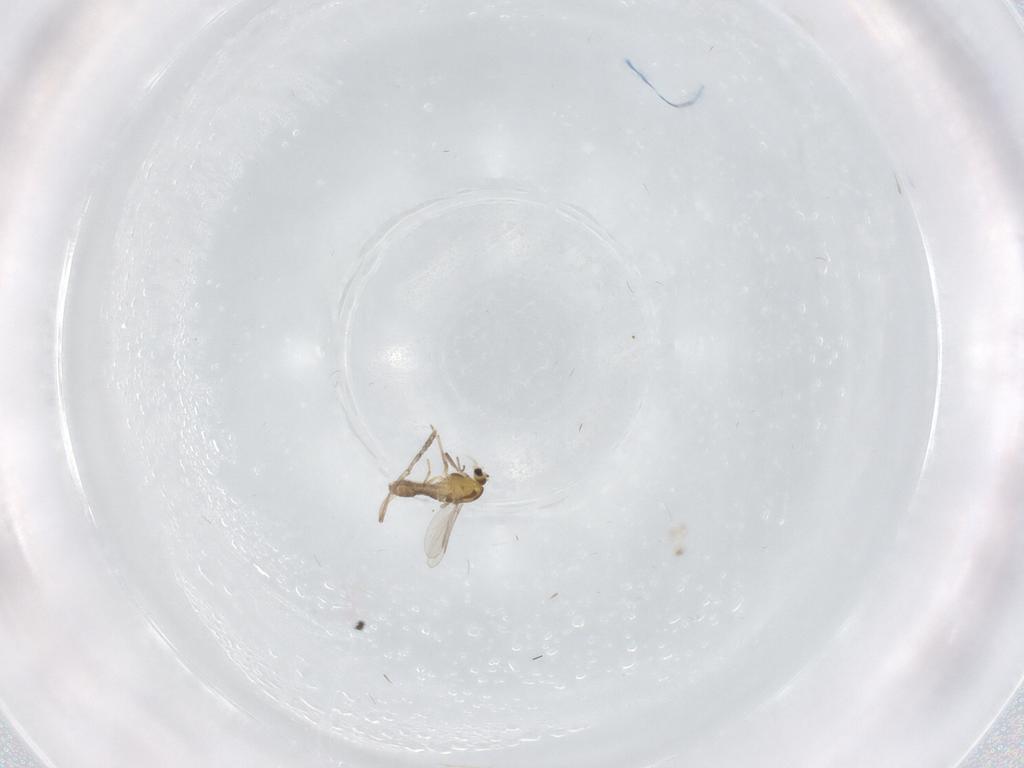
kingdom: Animalia
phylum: Arthropoda
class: Insecta
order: Diptera
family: Chironomidae
